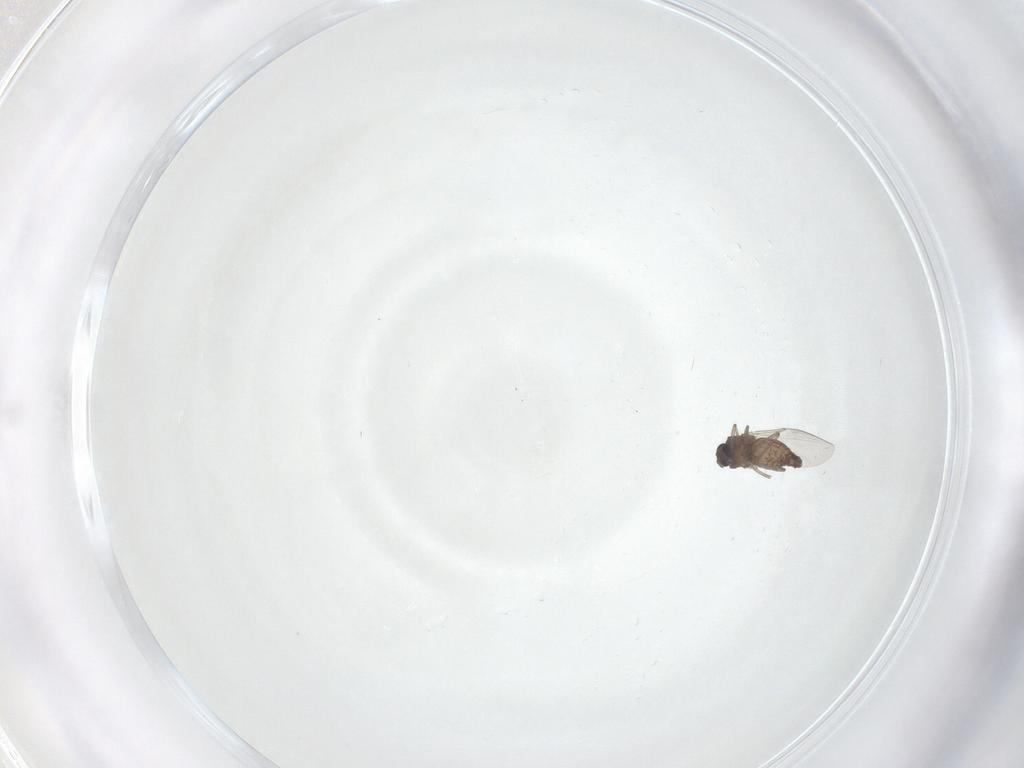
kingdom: Animalia
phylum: Arthropoda
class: Insecta
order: Diptera
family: Ceratopogonidae
